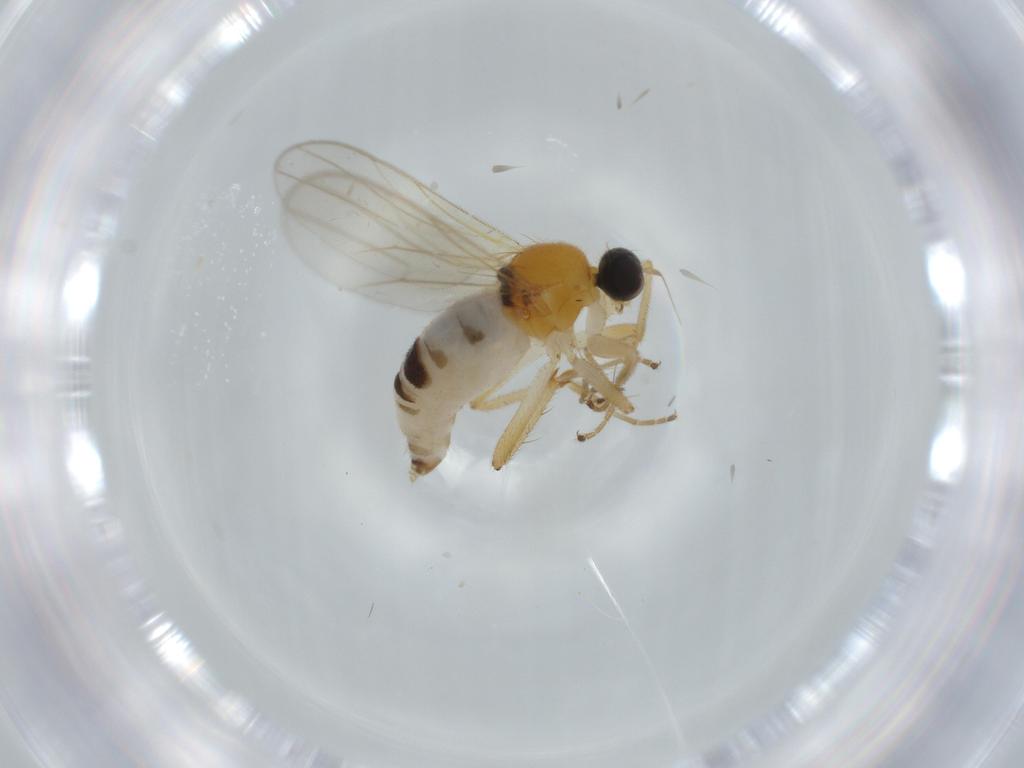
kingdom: Animalia
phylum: Arthropoda
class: Insecta
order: Diptera
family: Hybotidae
